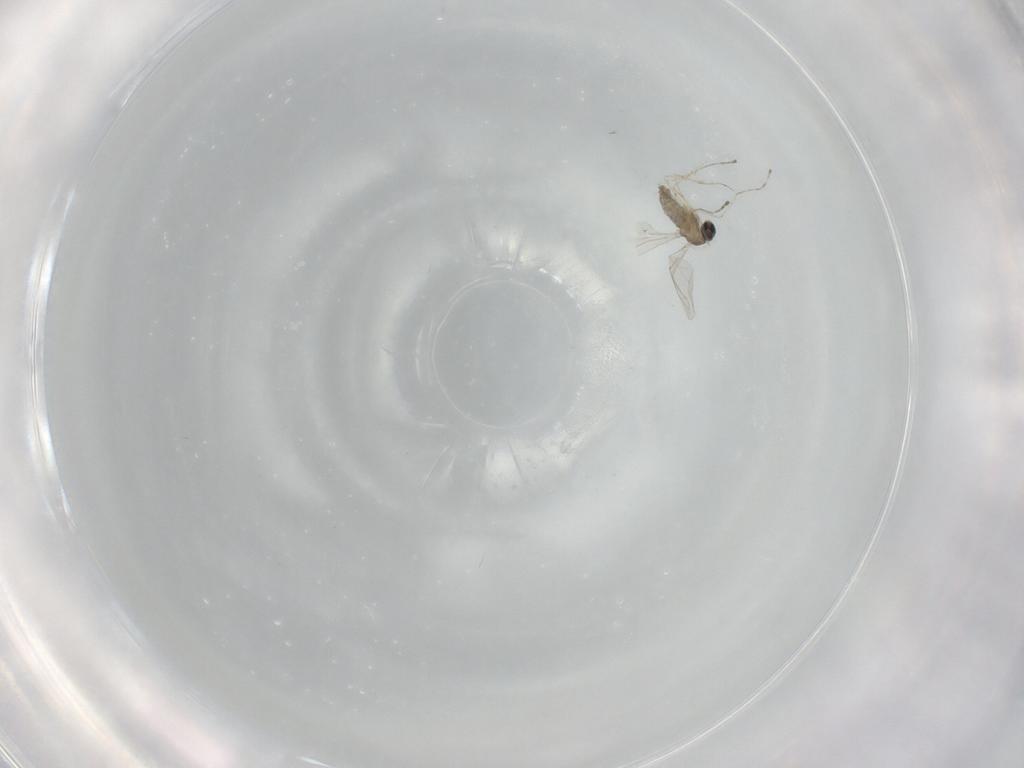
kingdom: Animalia
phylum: Arthropoda
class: Insecta
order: Diptera
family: Cecidomyiidae
